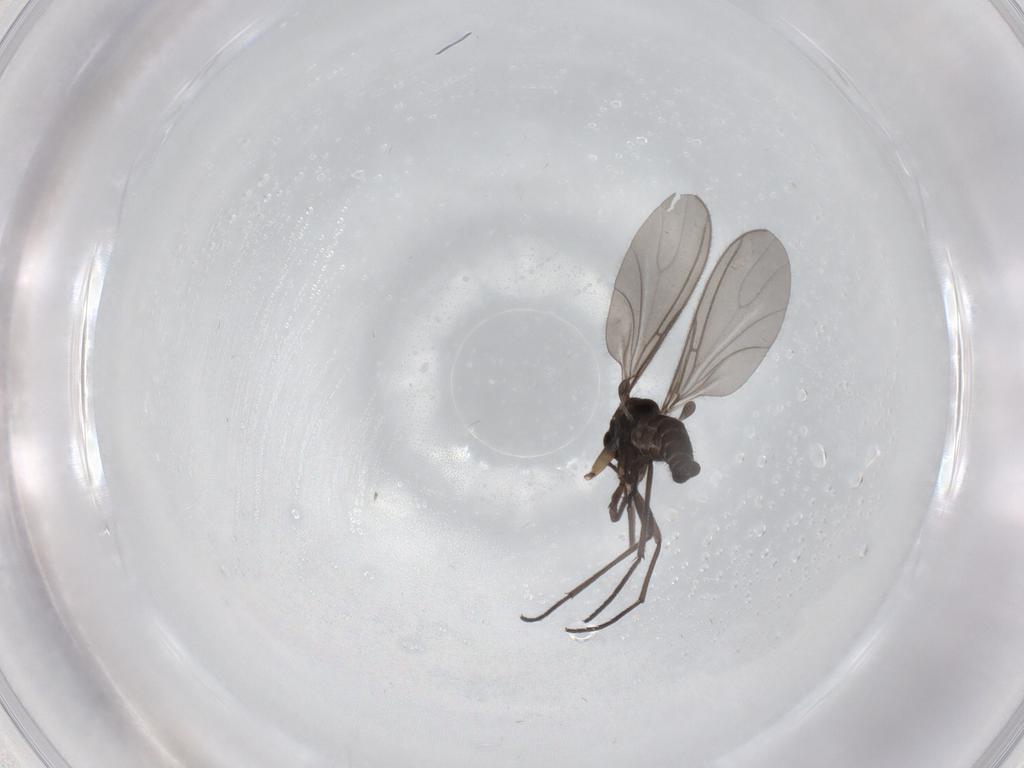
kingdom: Animalia
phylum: Arthropoda
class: Insecta
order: Diptera
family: Sciaridae
